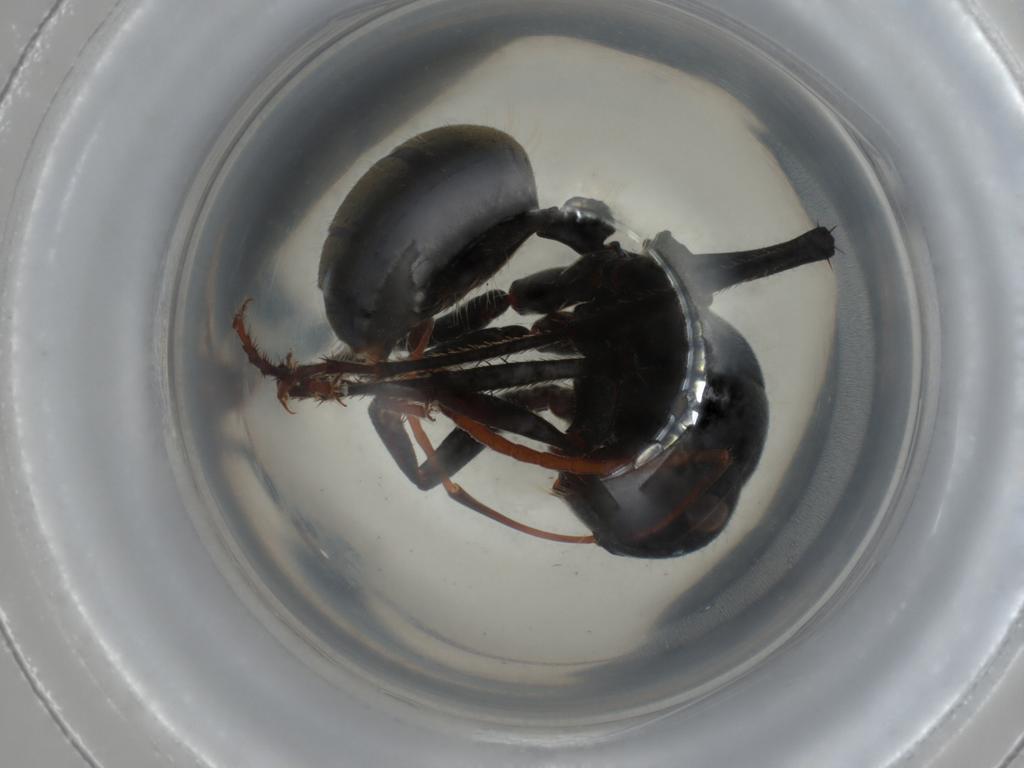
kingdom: Animalia
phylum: Arthropoda
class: Insecta
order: Hymenoptera
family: Formicidae
